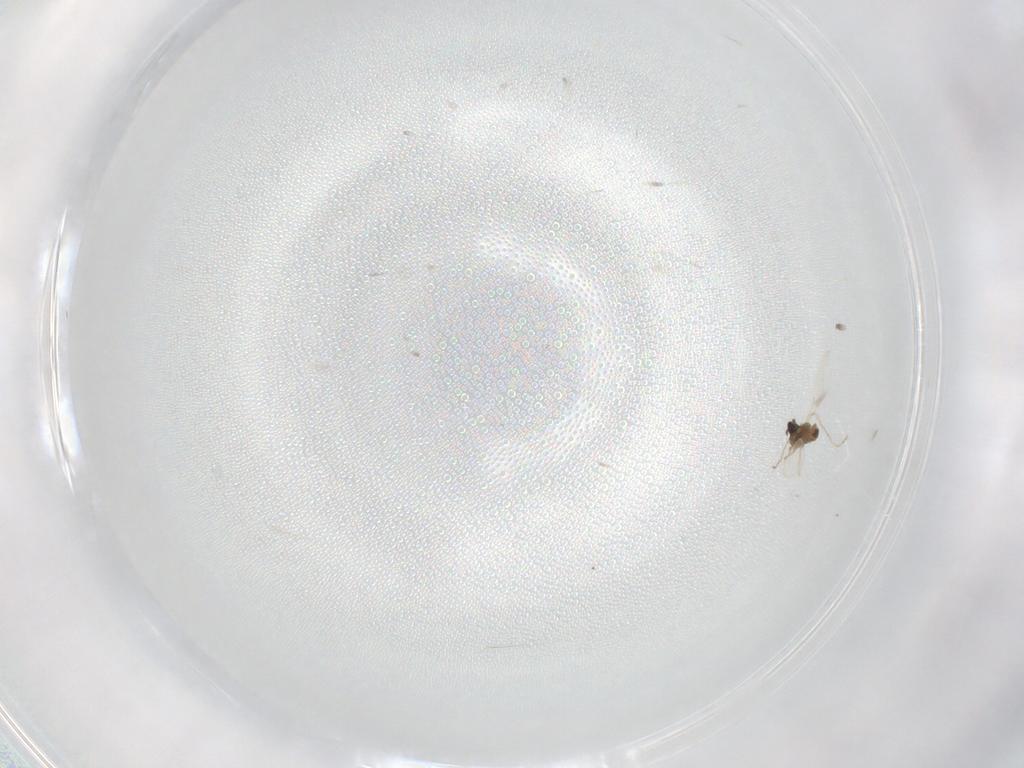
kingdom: Animalia
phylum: Arthropoda
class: Insecta
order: Diptera
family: Cecidomyiidae
